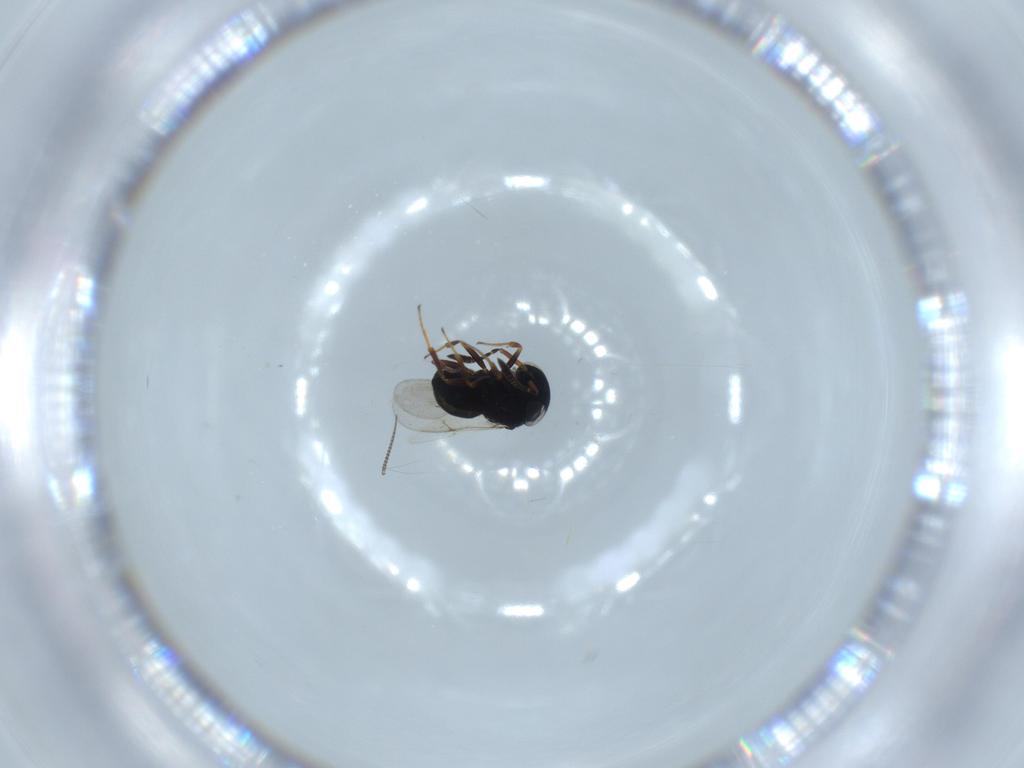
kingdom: Animalia
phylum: Arthropoda
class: Insecta
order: Hymenoptera
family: Scelionidae
